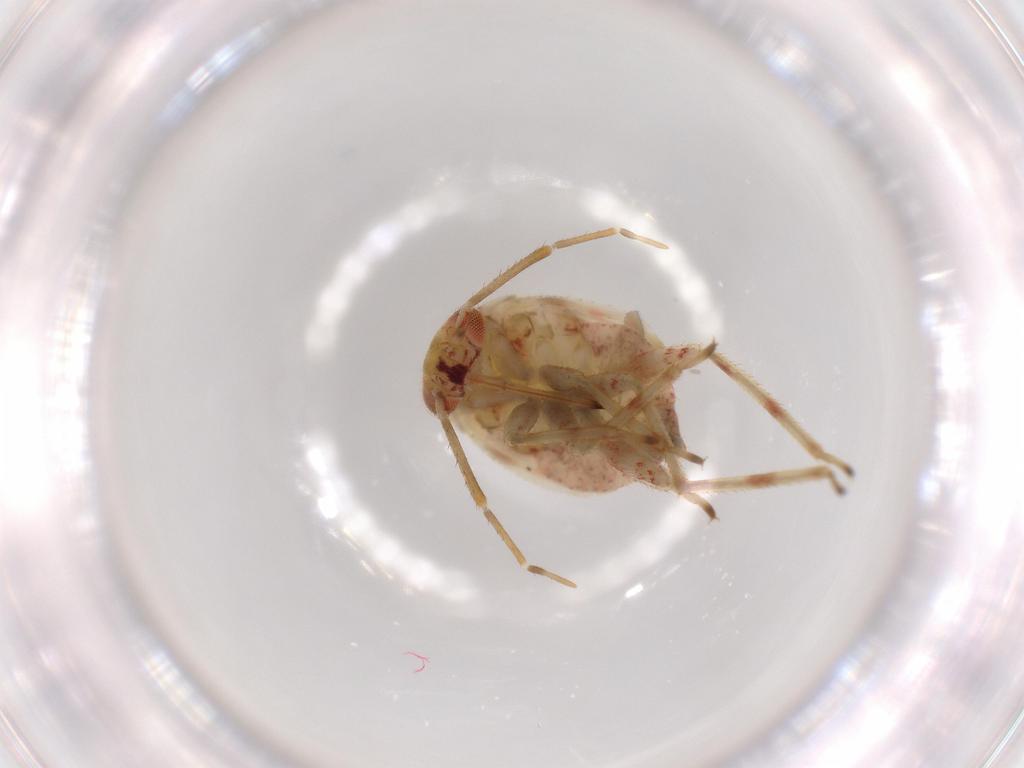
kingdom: Animalia
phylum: Arthropoda
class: Insecta
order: Hemiptera
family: Miridae
